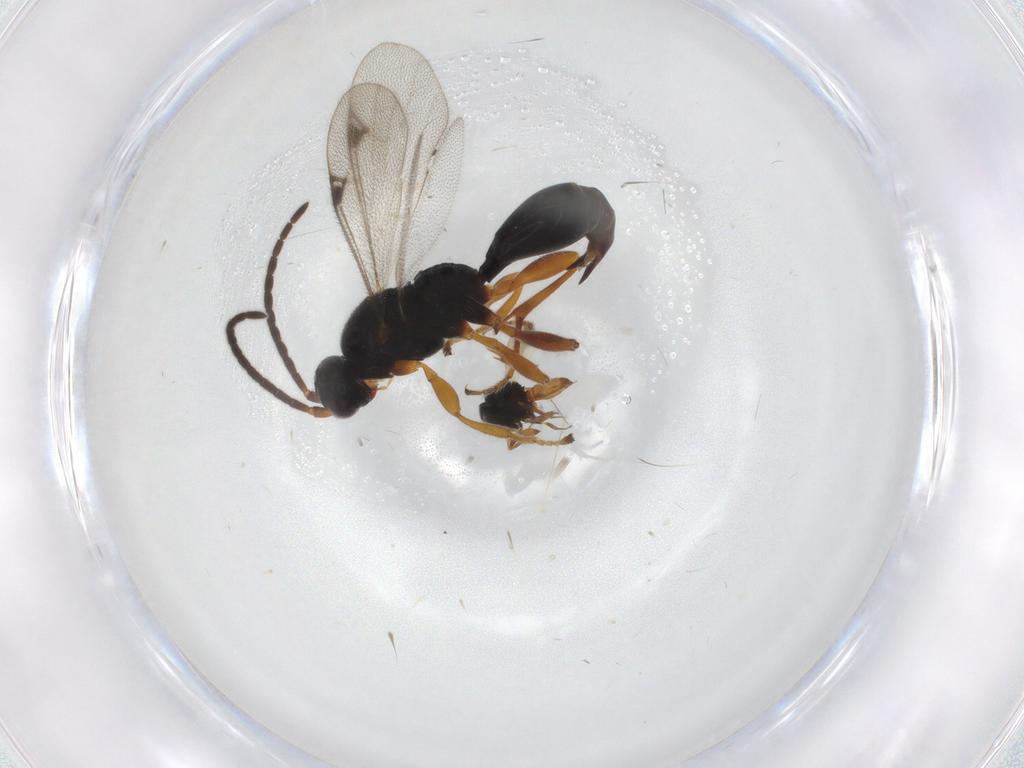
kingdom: Animalia
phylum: Arthropoda
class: Insecta
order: Hymenoptera
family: Proctotrupidae
